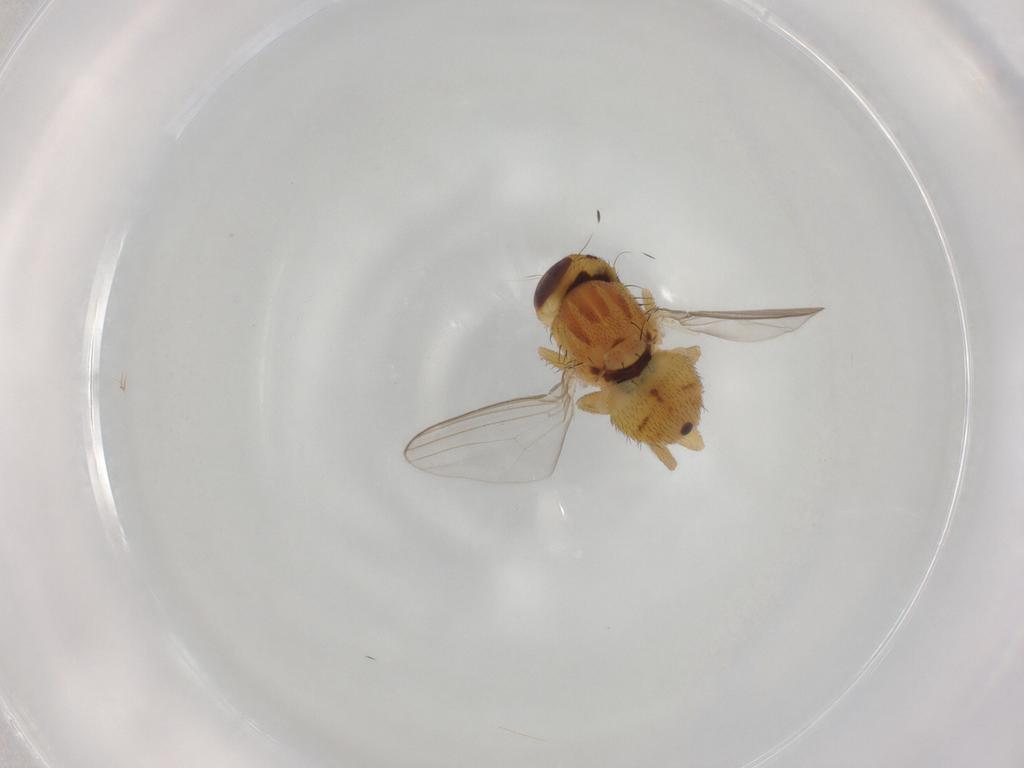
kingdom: Animalia
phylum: Arthropoda
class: Insecta
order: Diptera
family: Chloropidae
